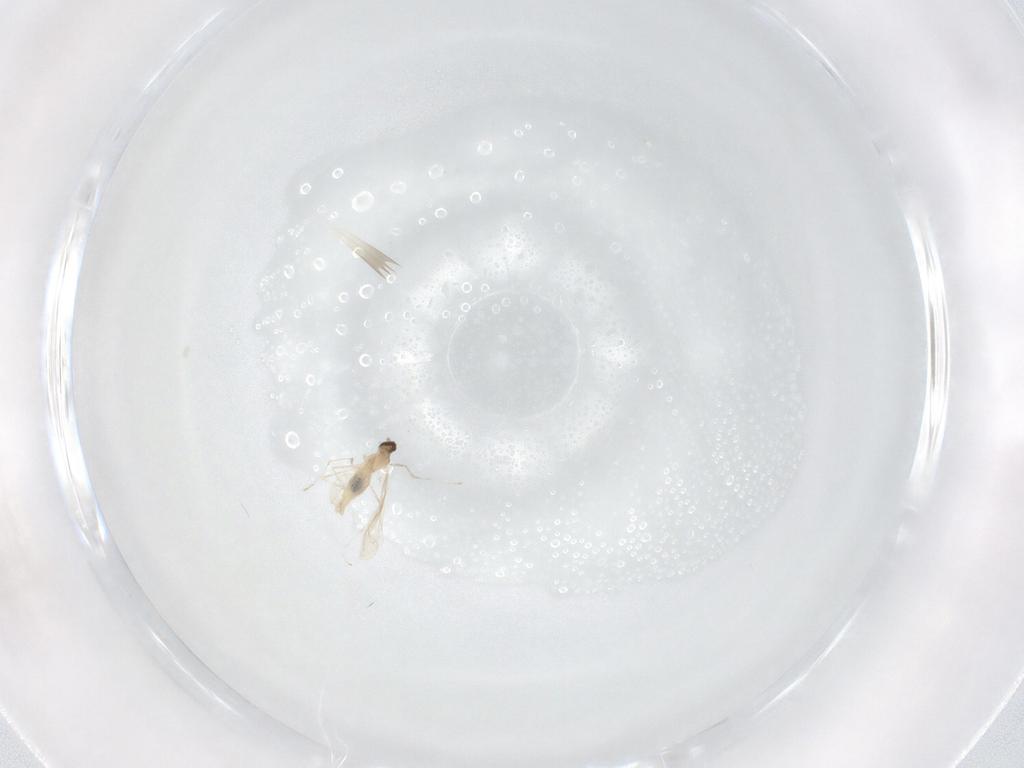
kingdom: Animalia
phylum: Arthropoda
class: Insecta
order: Diptera
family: Cecidomyiidae
